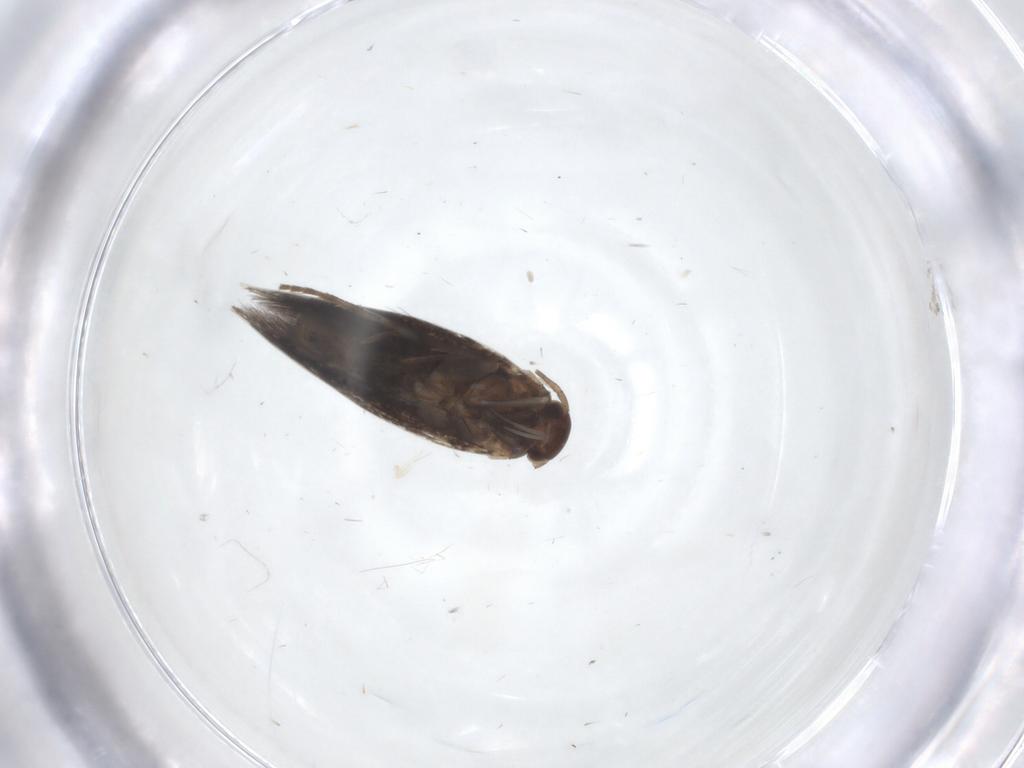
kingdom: Animalia
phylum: Arthropoda
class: Insecta
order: Lepidoptera
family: Elachistidae
